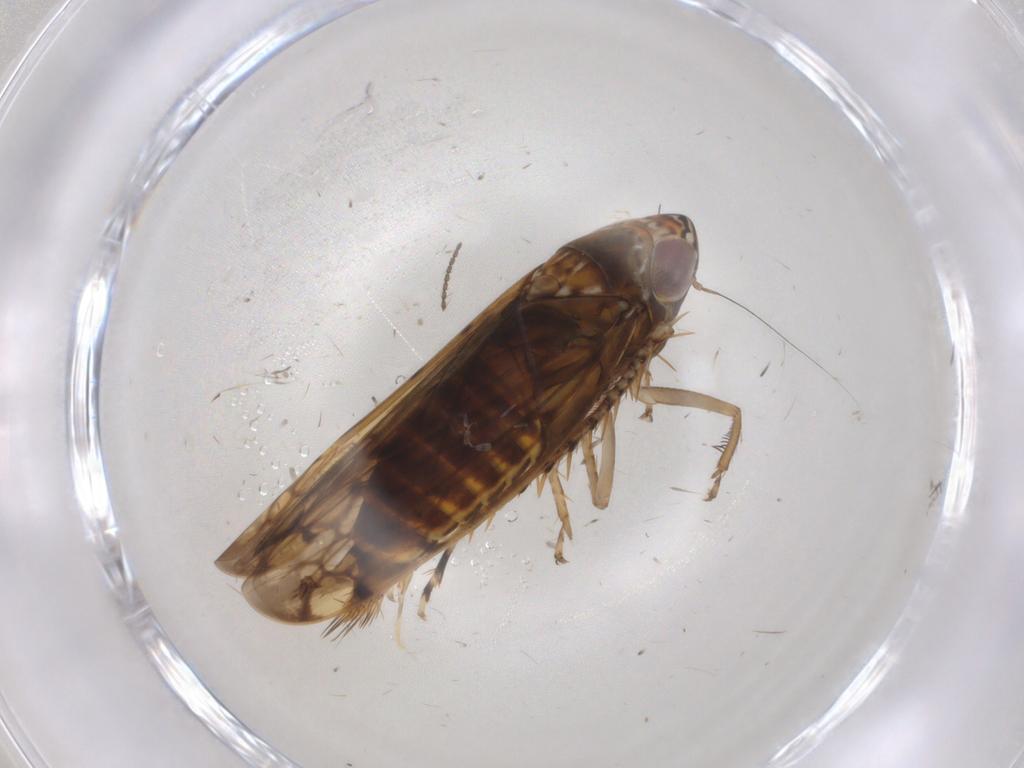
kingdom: Animalia
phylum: Arthropoda
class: Insecta
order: Hemiptera
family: Cicadellidae
